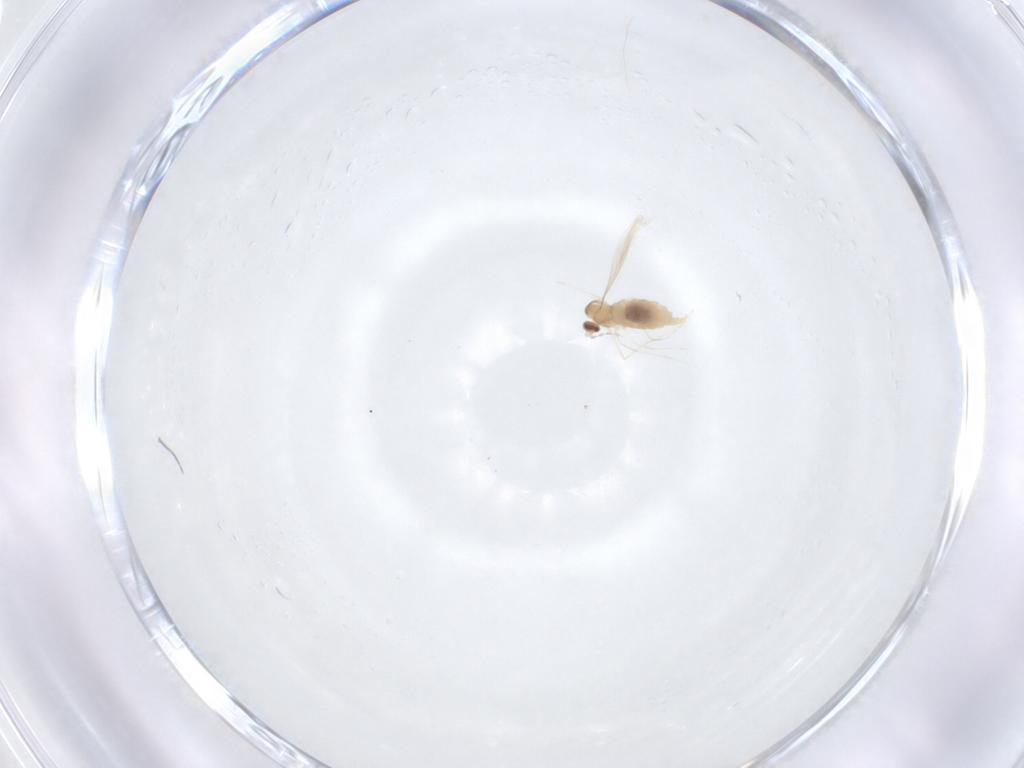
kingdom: Animalia
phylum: Arthropoda
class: Insecta
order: Diptera
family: Cecidomyiidae
